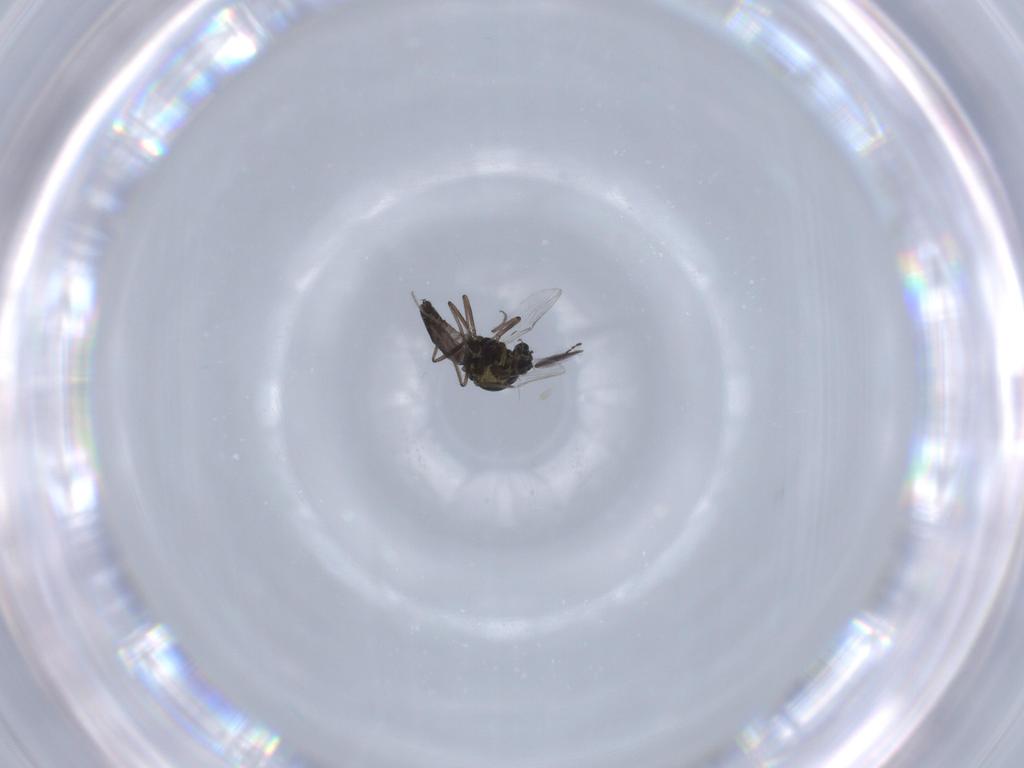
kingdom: Animalia
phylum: Arthropoda
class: Insecta
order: Diptera
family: Ceratopogonidae
